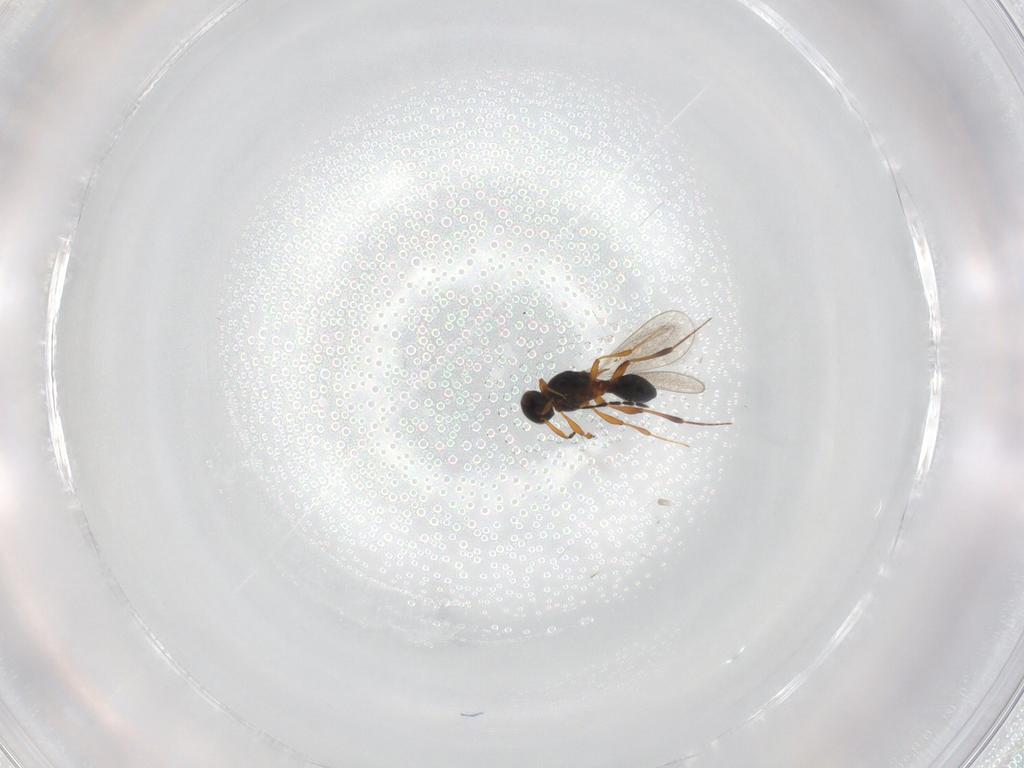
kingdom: Animalia
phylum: Arthropoda
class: Insecta
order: Hymenoptera
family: Platygastridae
